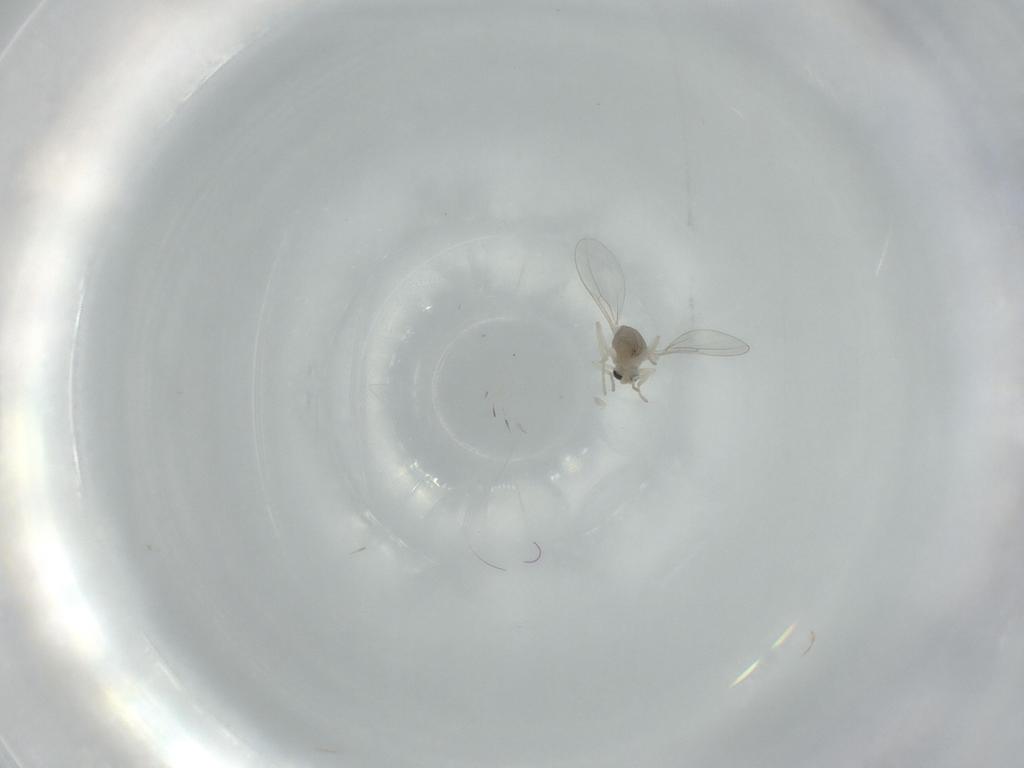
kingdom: Animalia
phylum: Arthropoda
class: Insecta
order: Diptera
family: Cecidomyiidae
